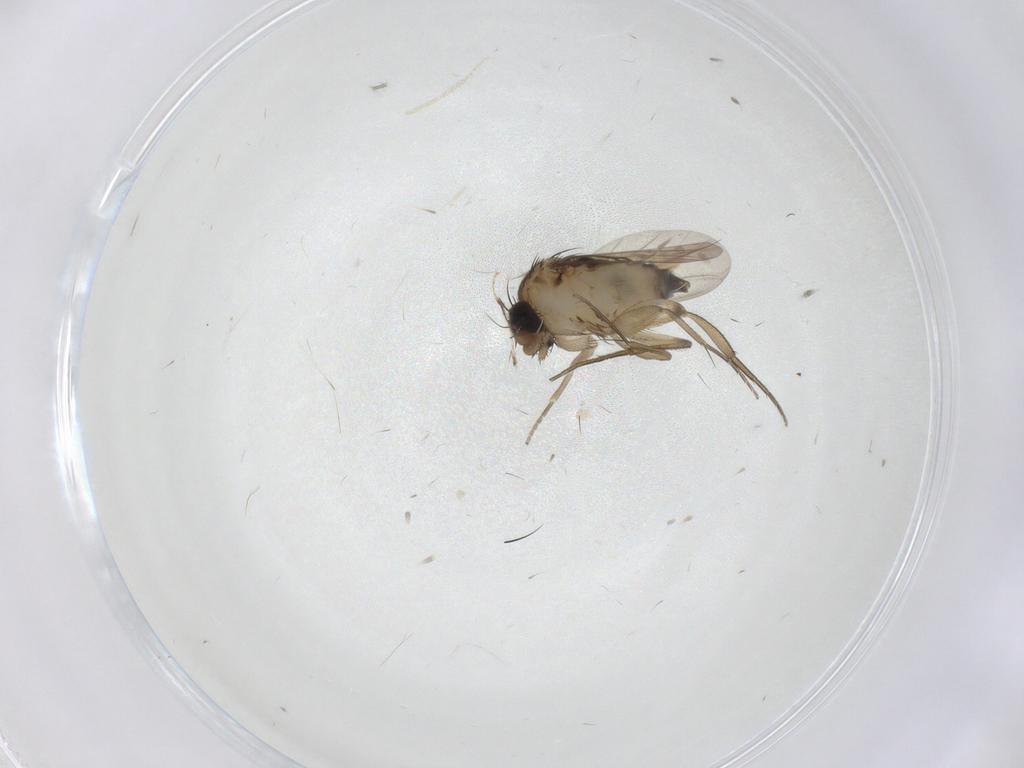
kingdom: Animalia
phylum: Arthropoda
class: Insecta
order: Diptera
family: Phoridae
